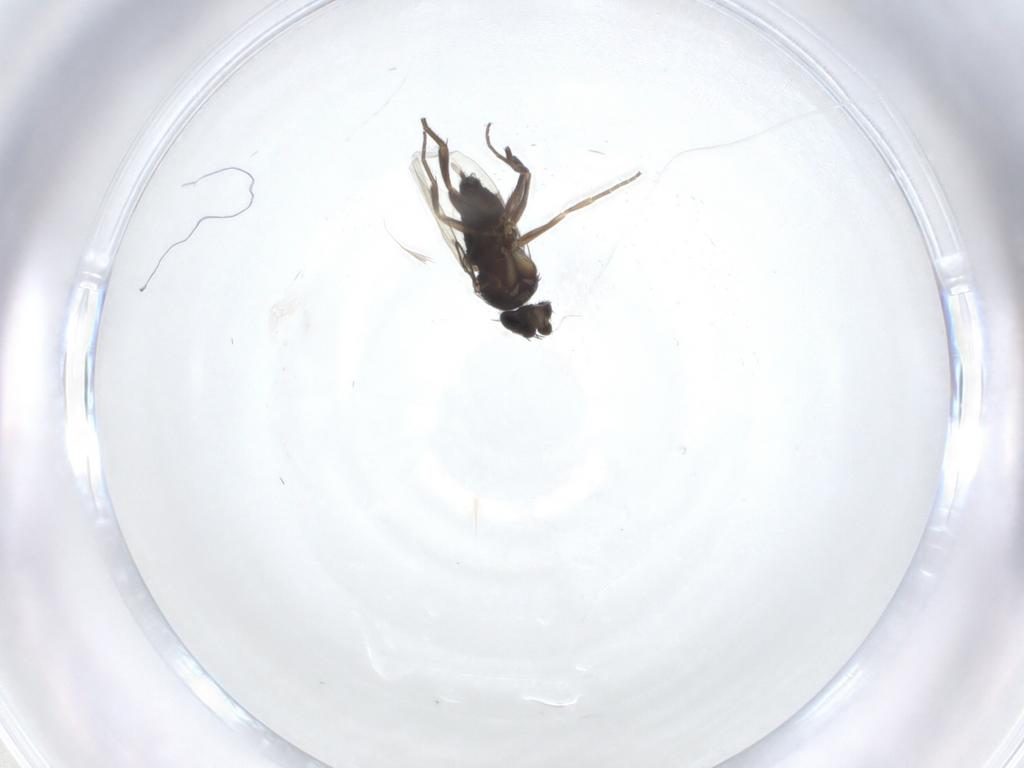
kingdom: Animalia
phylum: Arthropoda
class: Insecta
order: Diptera
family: Phoridae
